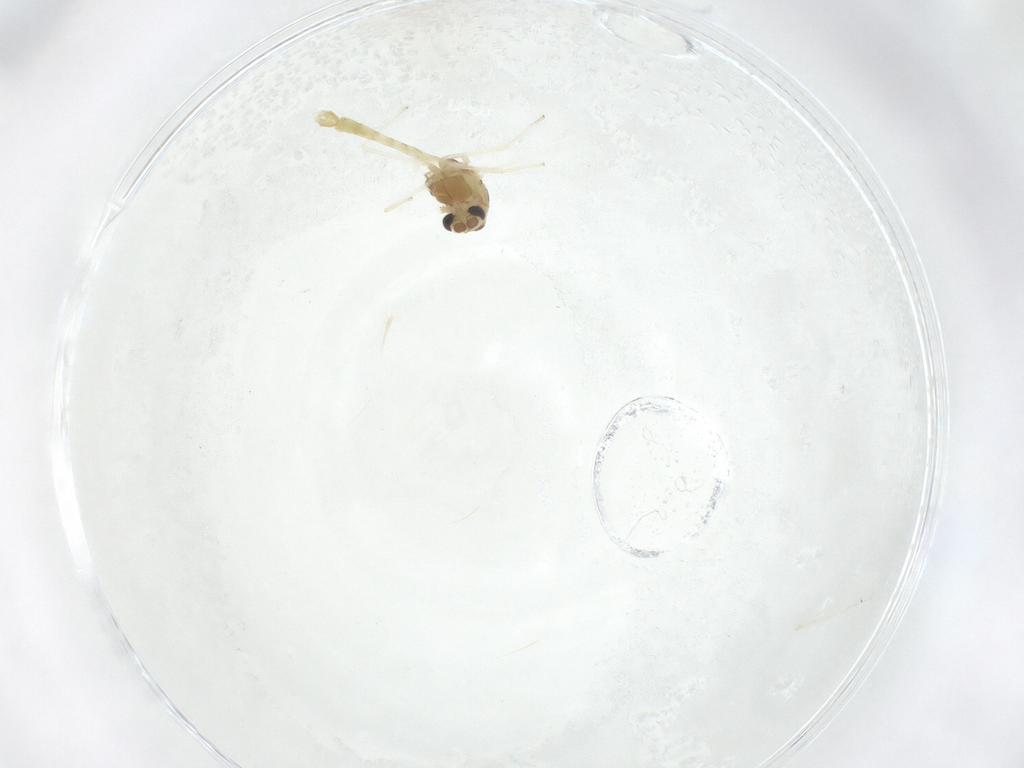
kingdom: Animalia
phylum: Arthropoda
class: Insecta
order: Diptera
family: Chironomidae
